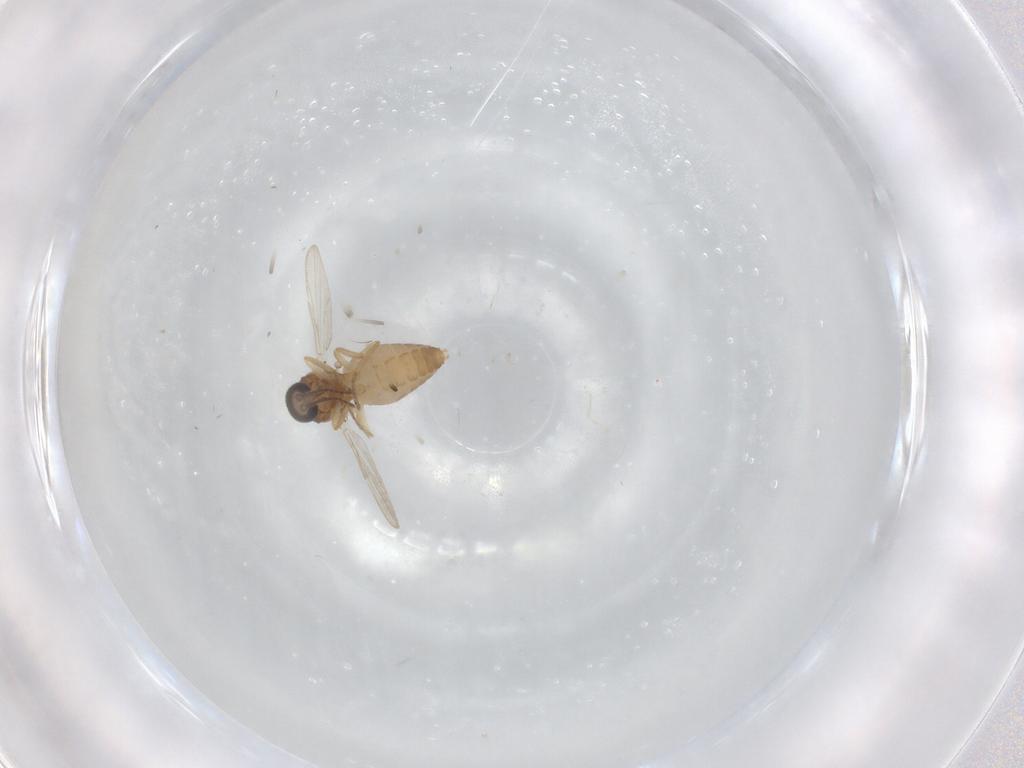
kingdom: Animalia
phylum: Arthropoda
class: Insecta
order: Diptera
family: Ceratopogonidae
